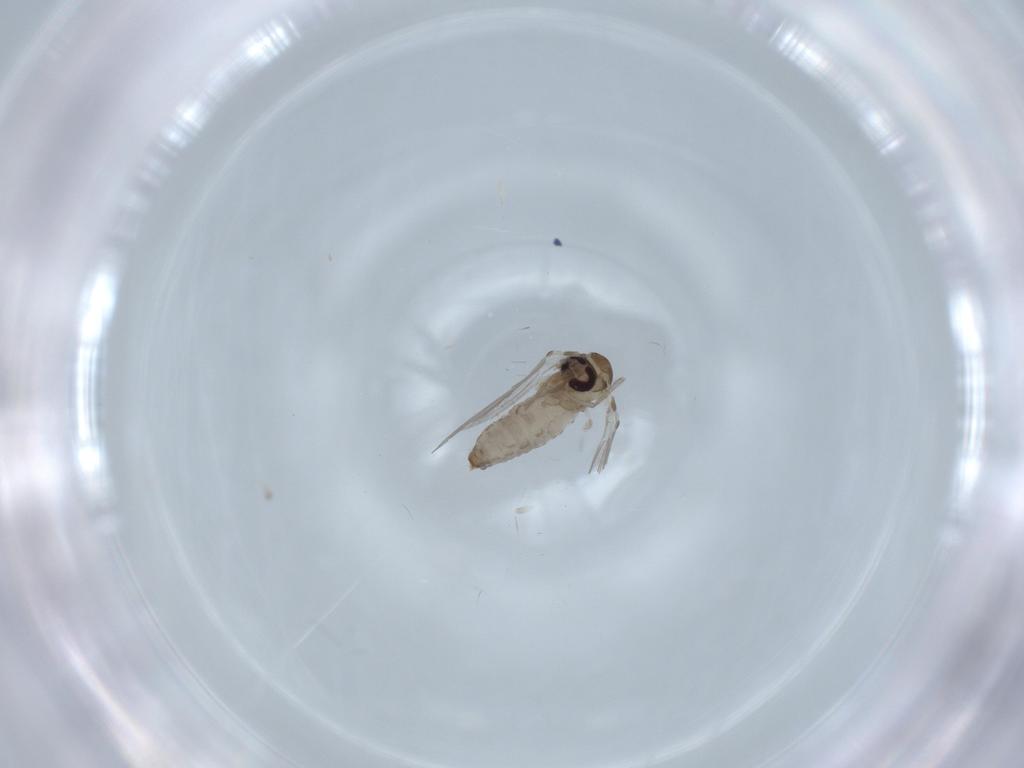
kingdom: Animalia
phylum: Arthropoda
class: Insecta
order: Diptera
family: Psychodidae
